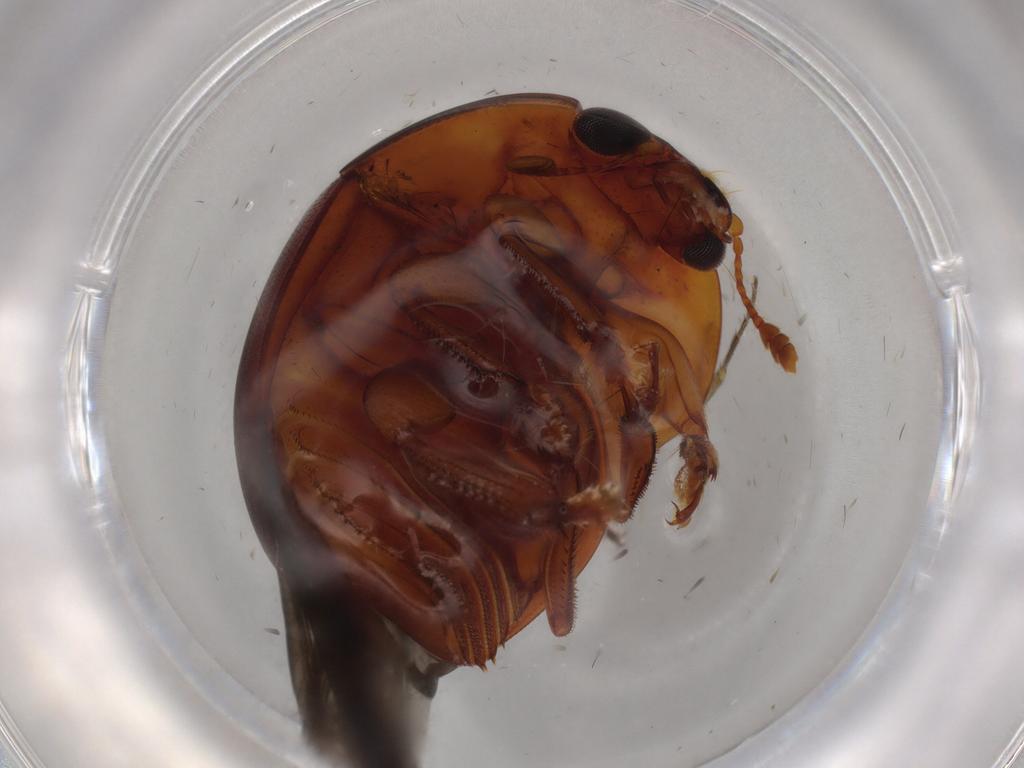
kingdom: Animalia
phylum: Arthropoda
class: Insecta
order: Coleoptera
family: Nitidulidae
